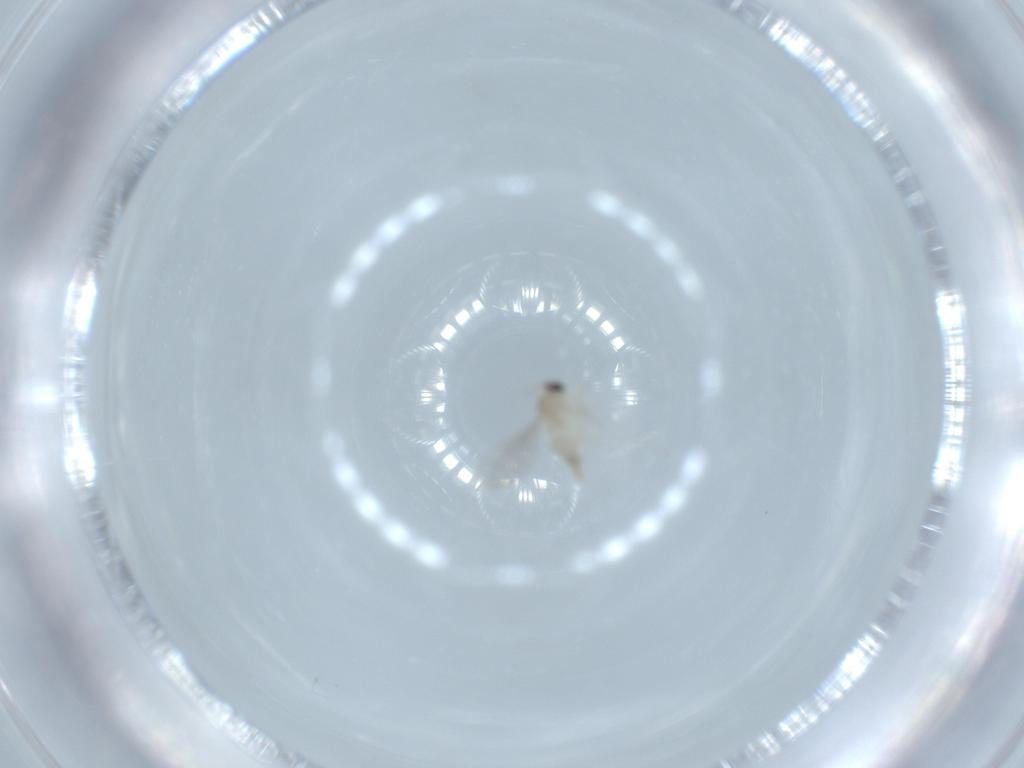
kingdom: Animalia
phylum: Arthropoda
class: Insecta
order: Diptera
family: Cecidomyiidae
